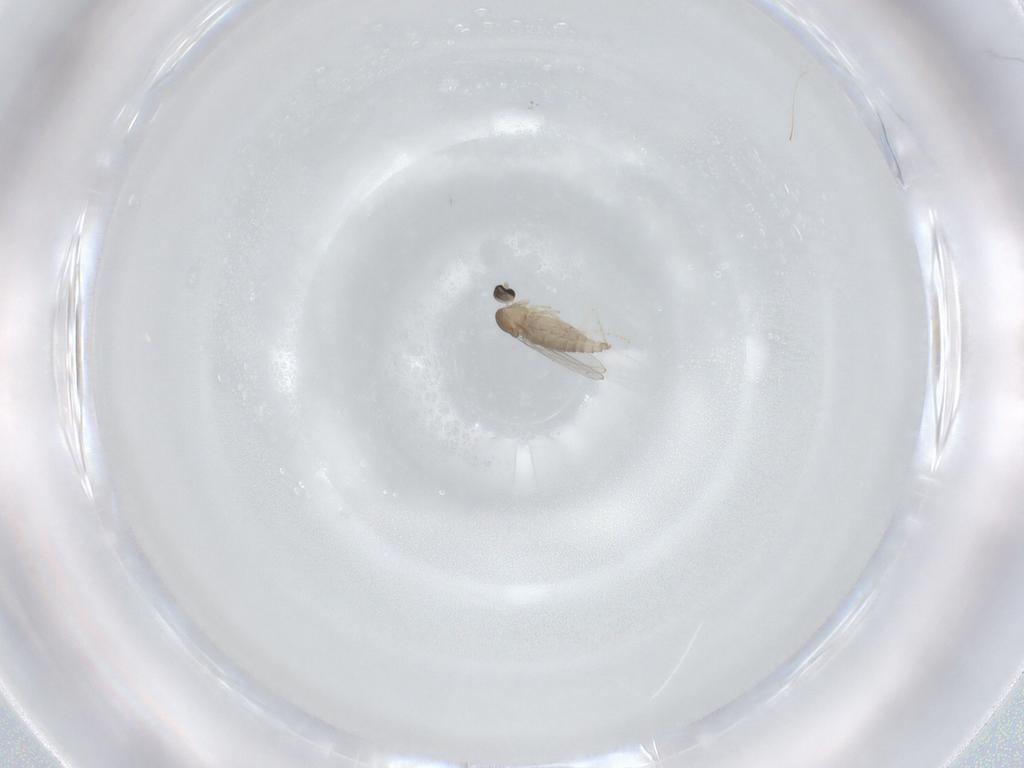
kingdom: Animalia
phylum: Arthropoda
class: Insecta
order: Diptera
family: Cecidomyiidae
